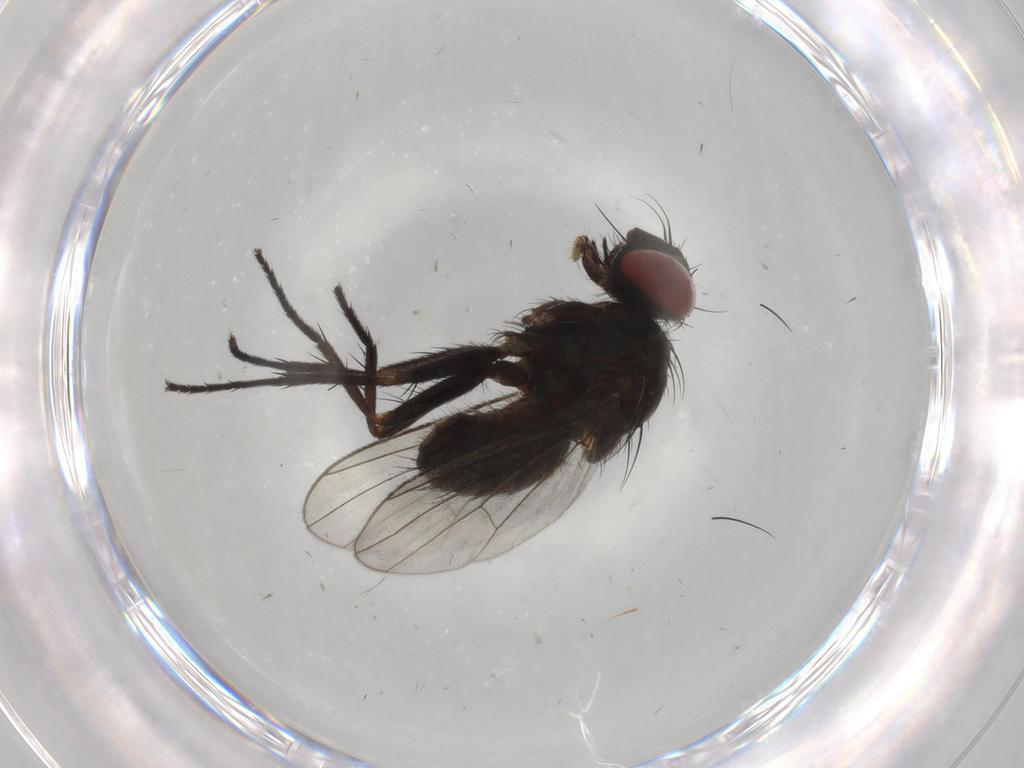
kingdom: Animalia
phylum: Arthropoda
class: Insecta
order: Diptera
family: Muscidae
